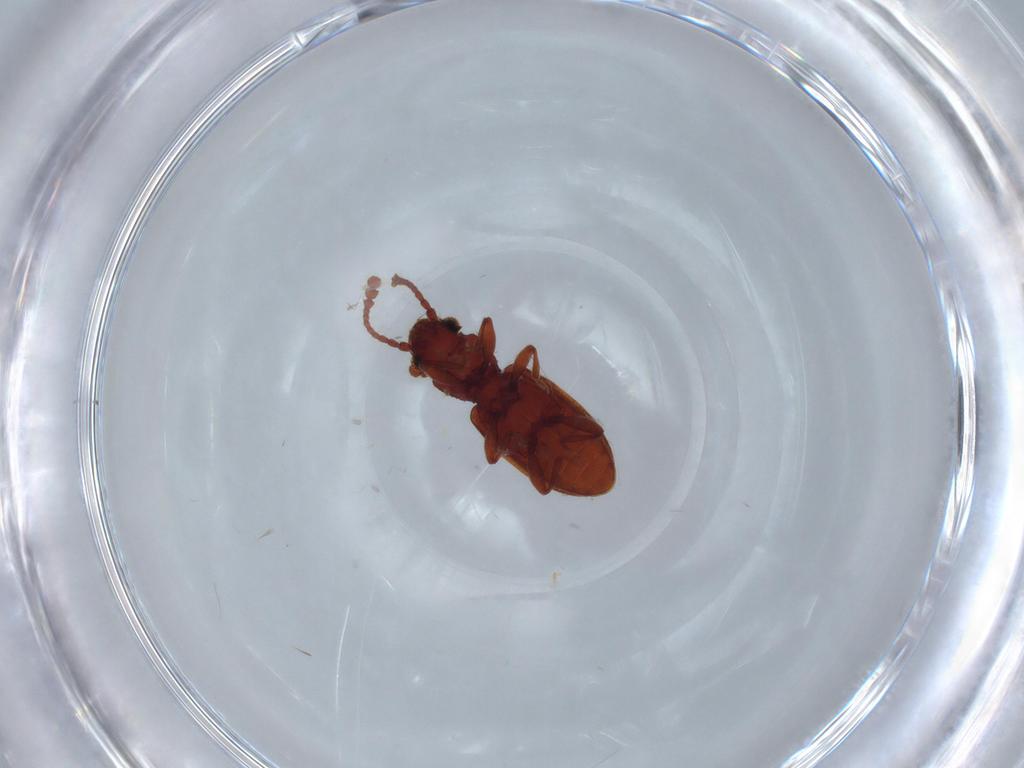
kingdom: Animalia
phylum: Arthropoda
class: Insecta
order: Coleoptera
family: Silvanidae
